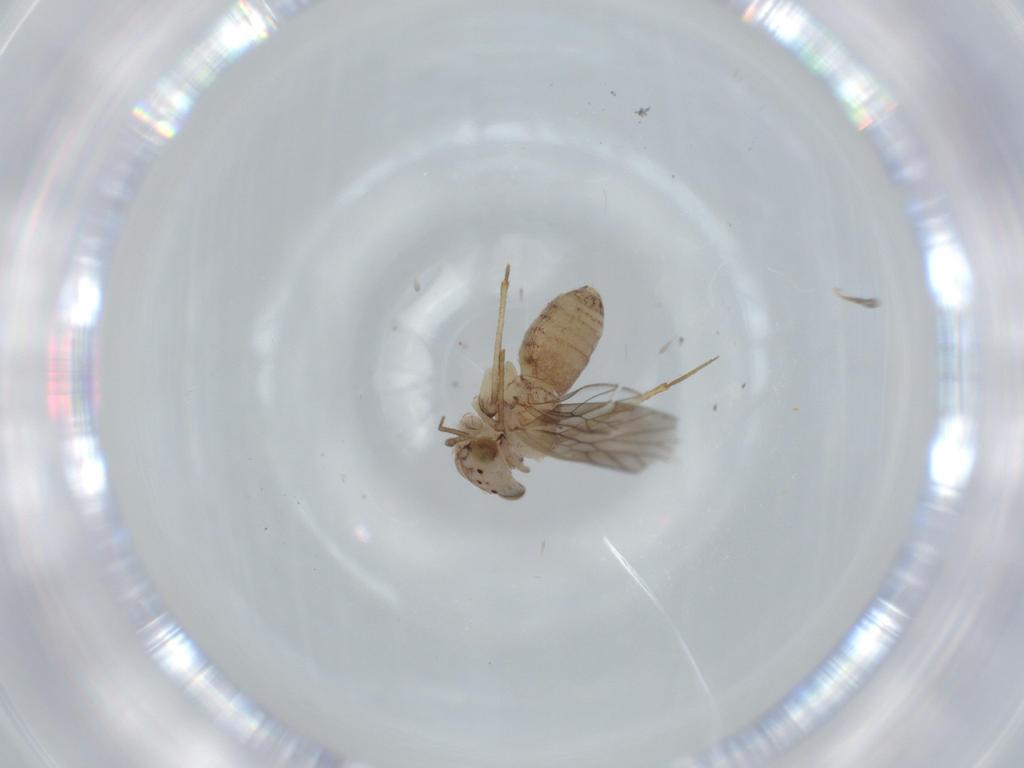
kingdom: Animalia
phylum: Arthropoda
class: Insecta
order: Psocodea
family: Lepidopsocidae
